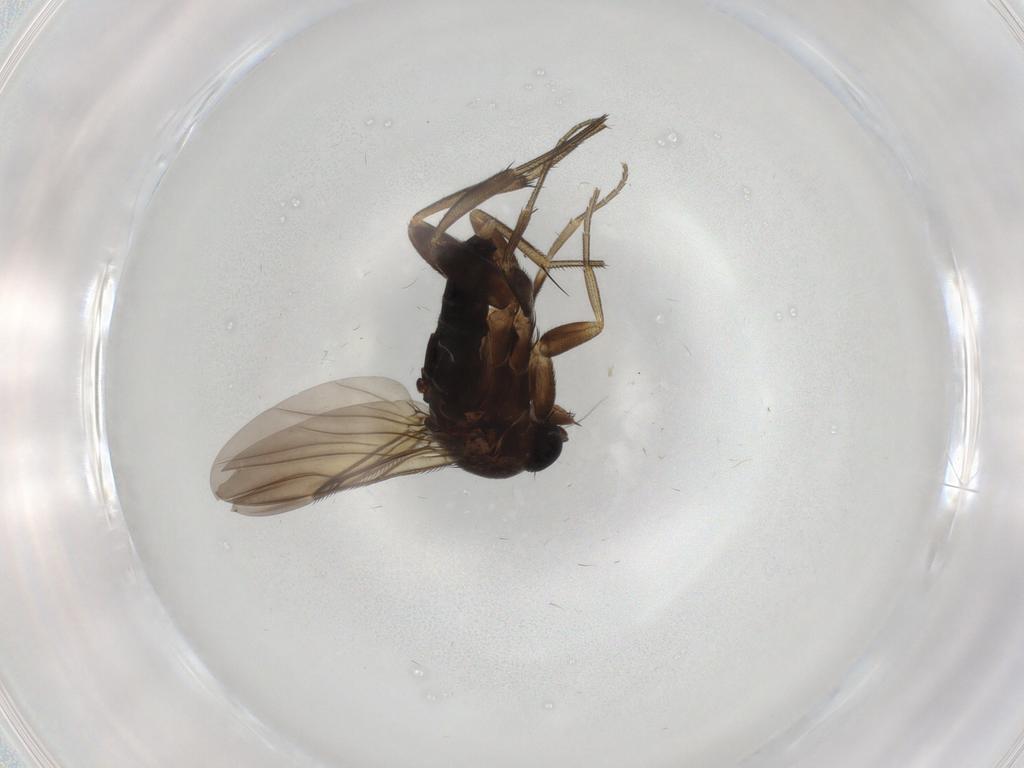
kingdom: Animalia
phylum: Arthropoda
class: Insecta
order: Diptera
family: Phoridae
